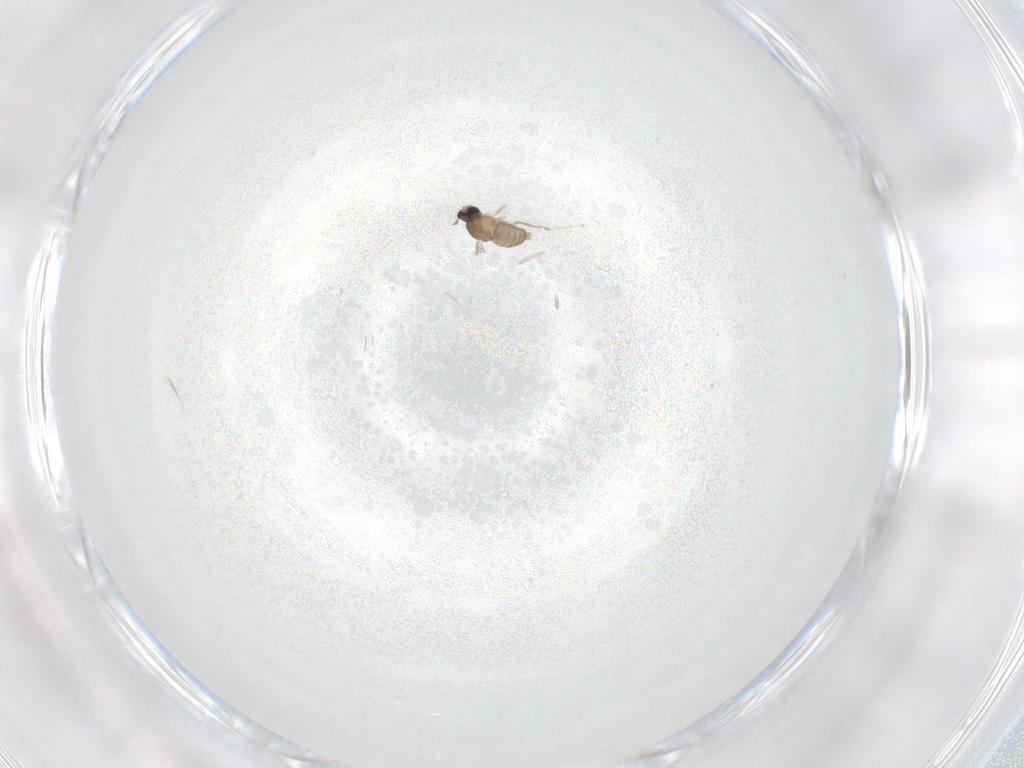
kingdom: Animalia
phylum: Arthropoda
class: Insecta
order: Diptera
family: Cecidomyiidae
